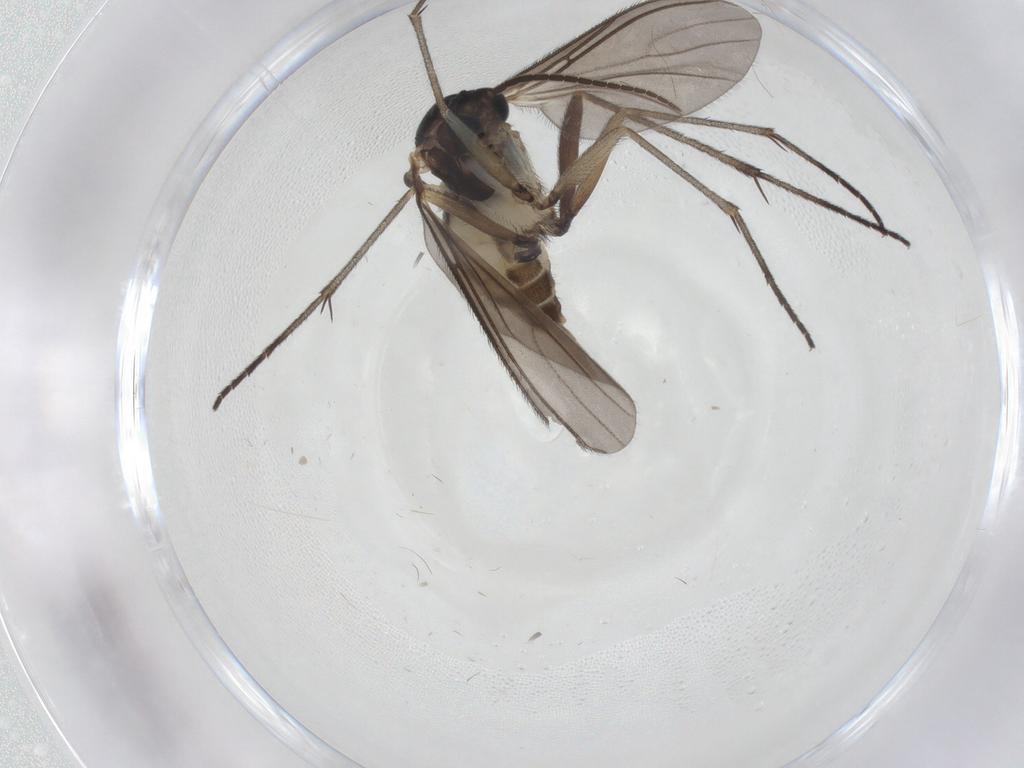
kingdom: Animalia
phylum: Arthropoda
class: Insecta
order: Diptera
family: Sciaridae
